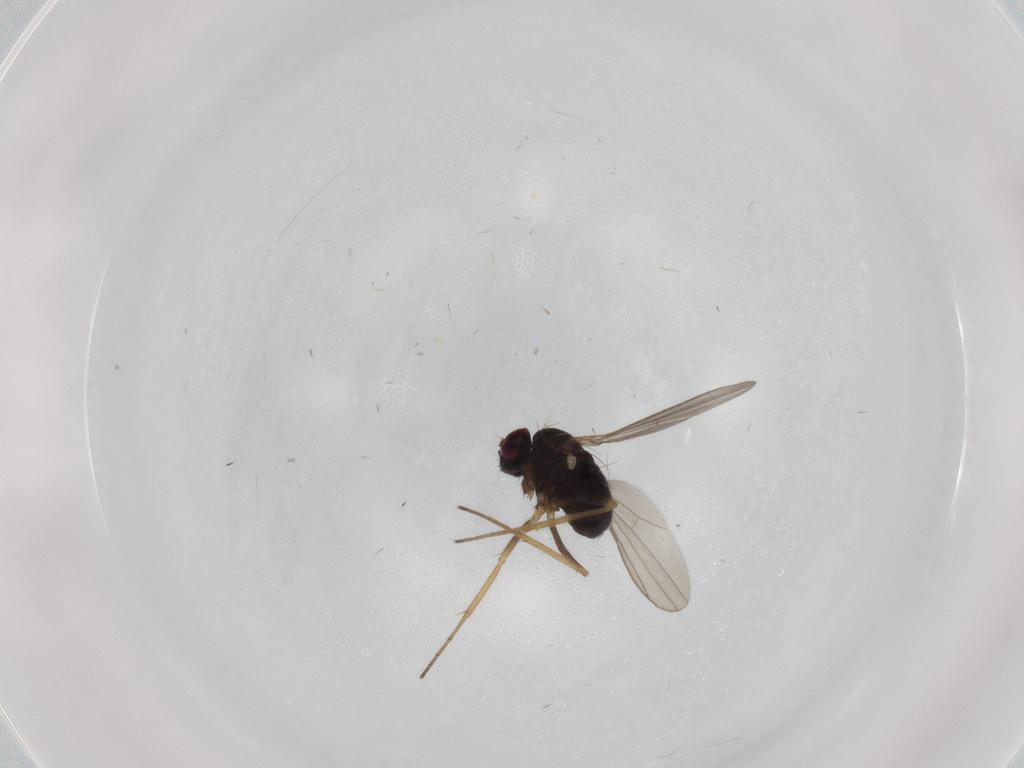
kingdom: Animalia
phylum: Arthropoda
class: Insecta
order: Diptera
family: Dolichopodidae
